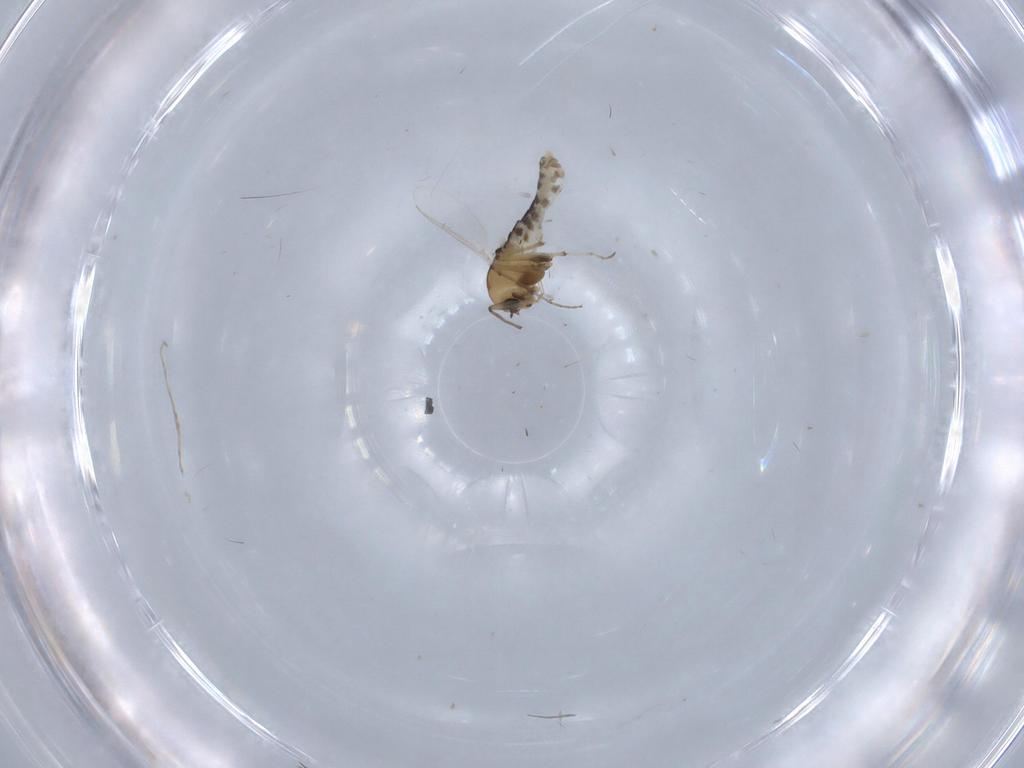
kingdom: Animalia
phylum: Arthropoda
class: Insecta
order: Diptera
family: Chironomidae
